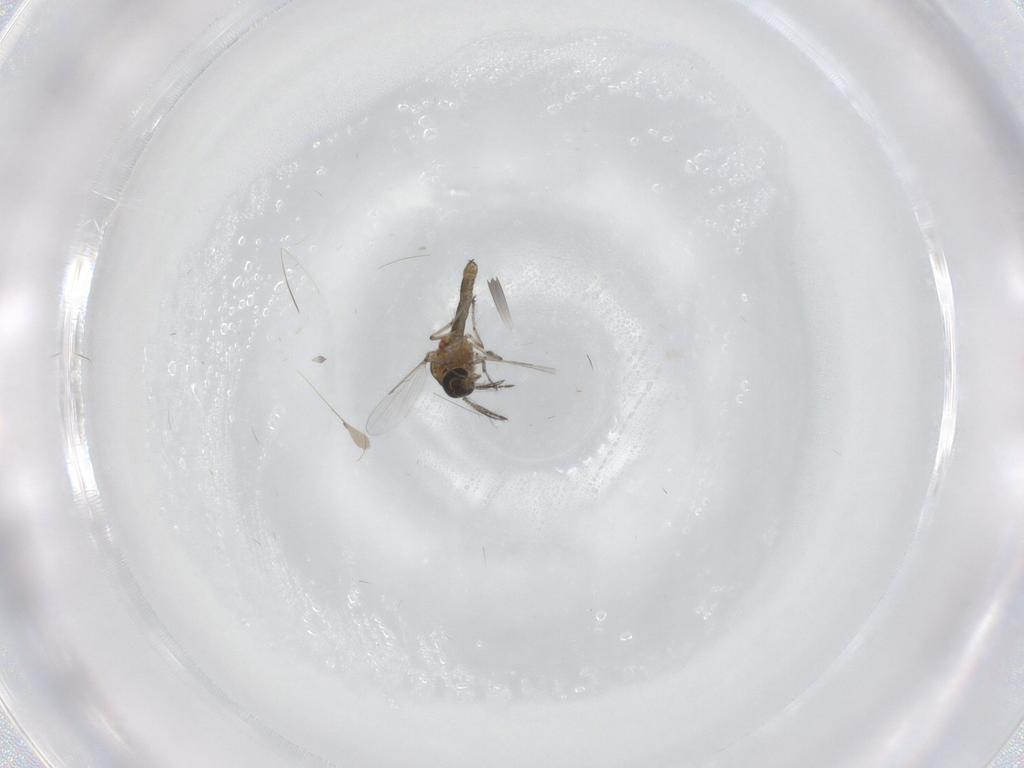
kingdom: Animalia
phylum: Arthropoda
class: Insecta
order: Diptera
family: Ceratopogonidae
